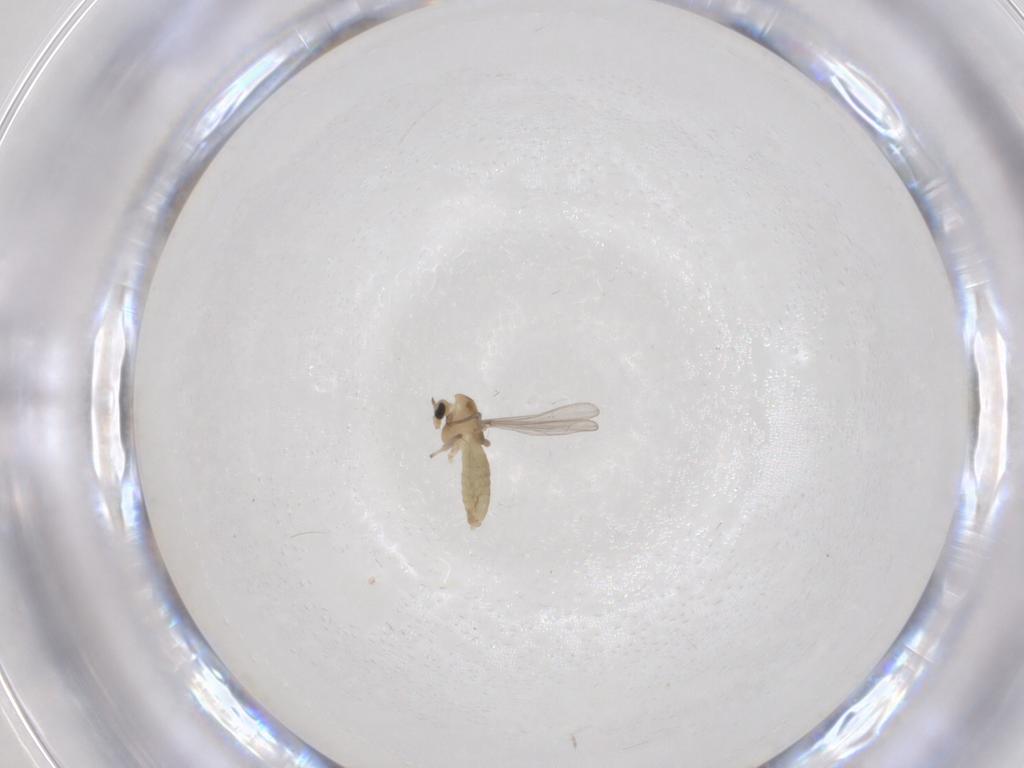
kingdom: Animalia
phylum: Arthropoda
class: Insecta
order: Diptera
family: Chironomidae
